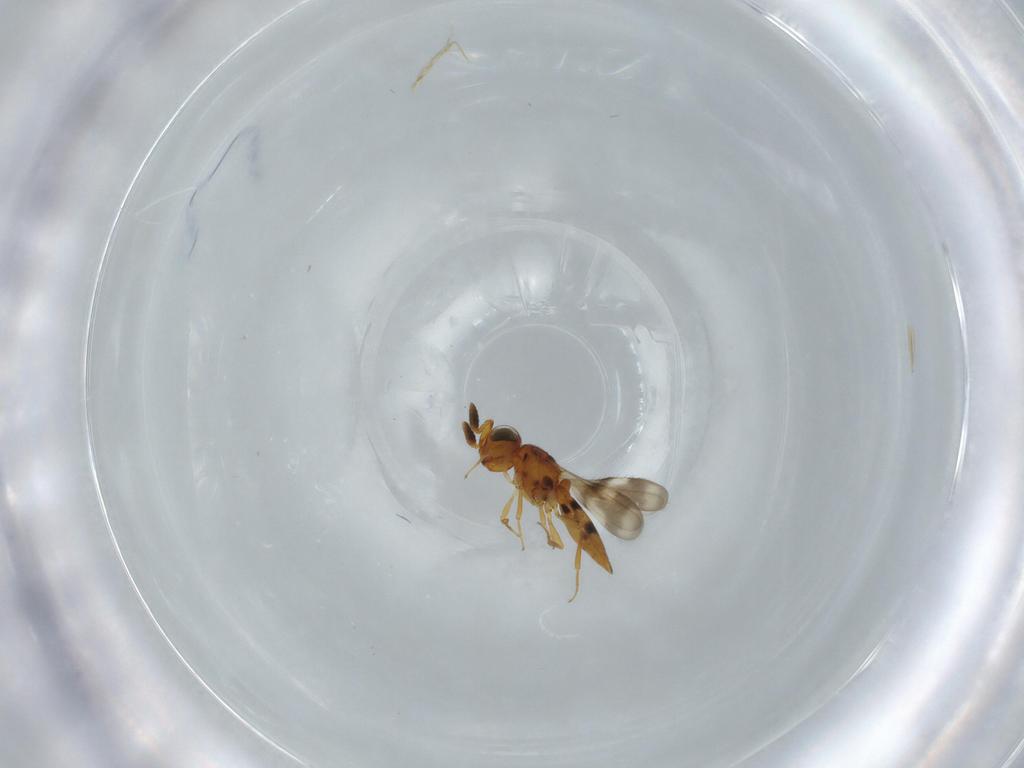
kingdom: Animalia
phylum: Arthropoda
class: Insecta
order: Hymenoptera
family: Scelionidae
